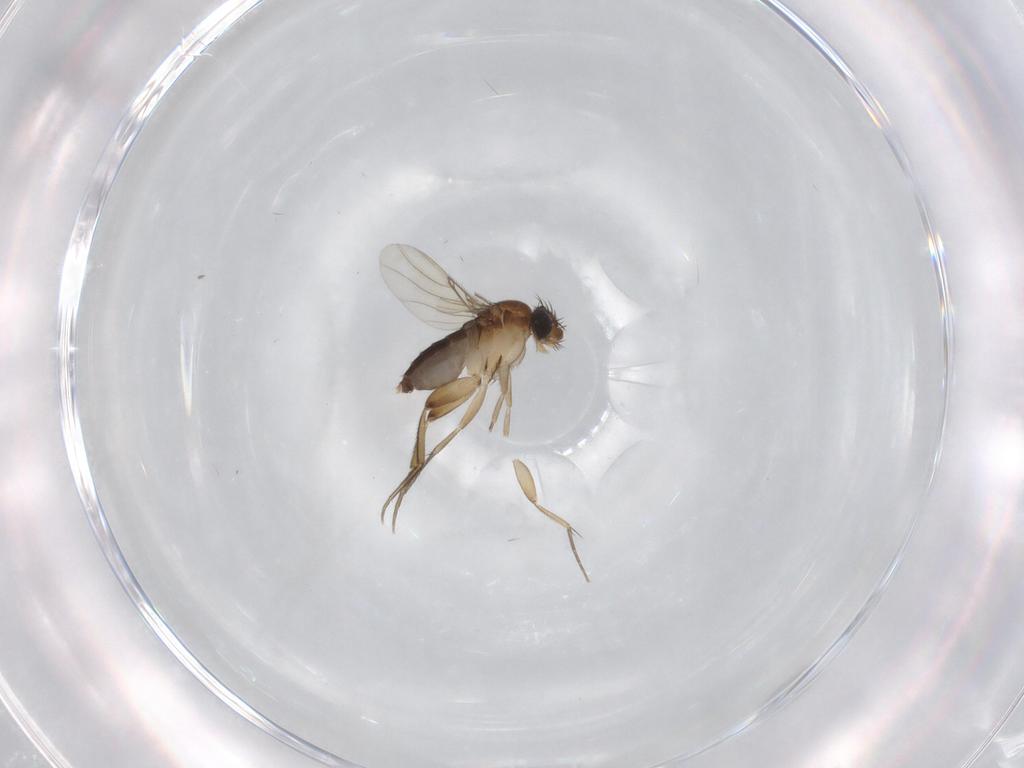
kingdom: Animalia
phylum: Arthropoda
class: Insecta
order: Diptera
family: Phoridae
